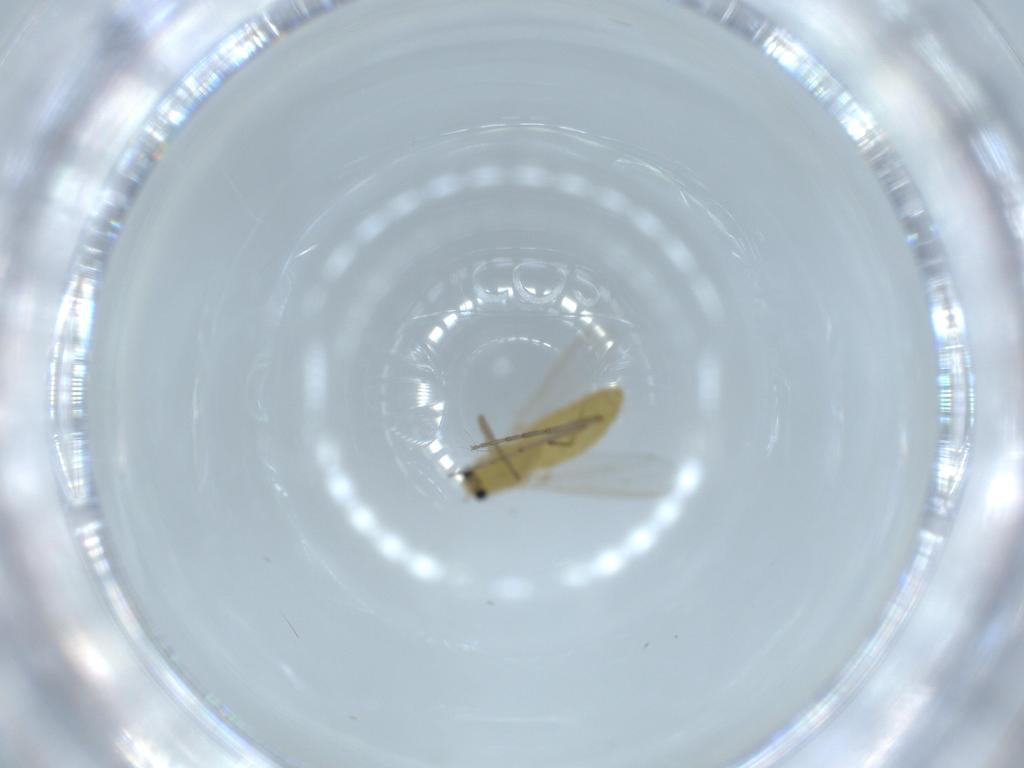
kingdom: Animalia
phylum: Arthropoda
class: Insecta
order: Diptera
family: Chironomidae
